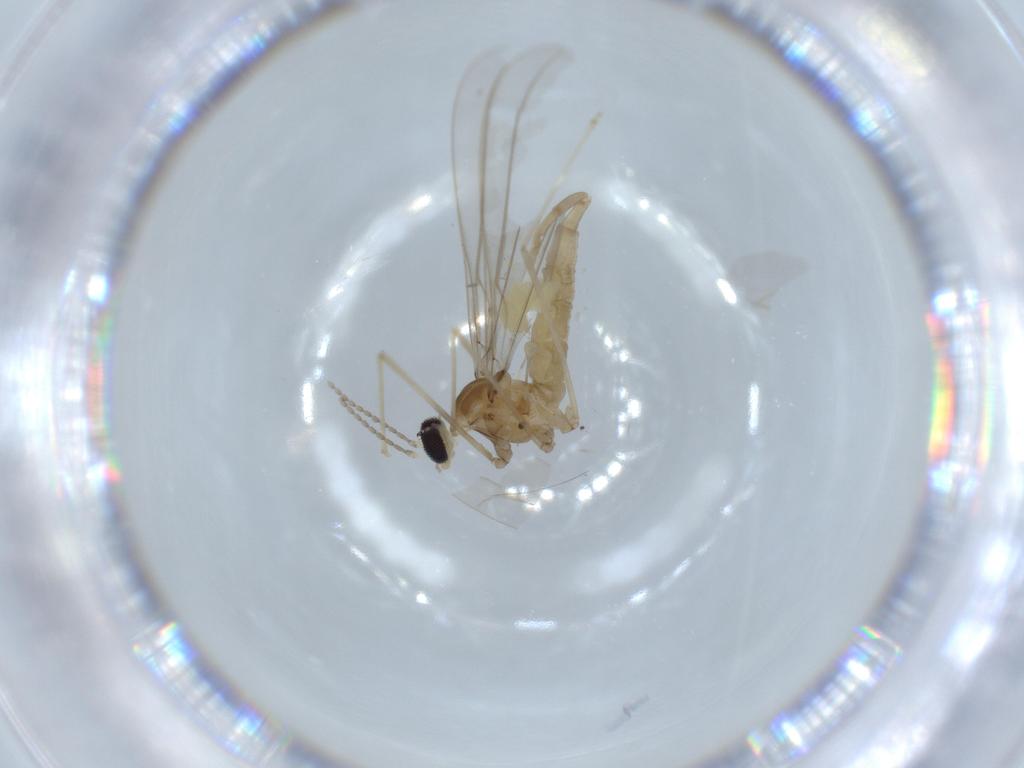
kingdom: Animalia
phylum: Arthropoda
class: Insecta
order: Diptera
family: Cecidomyiidae
